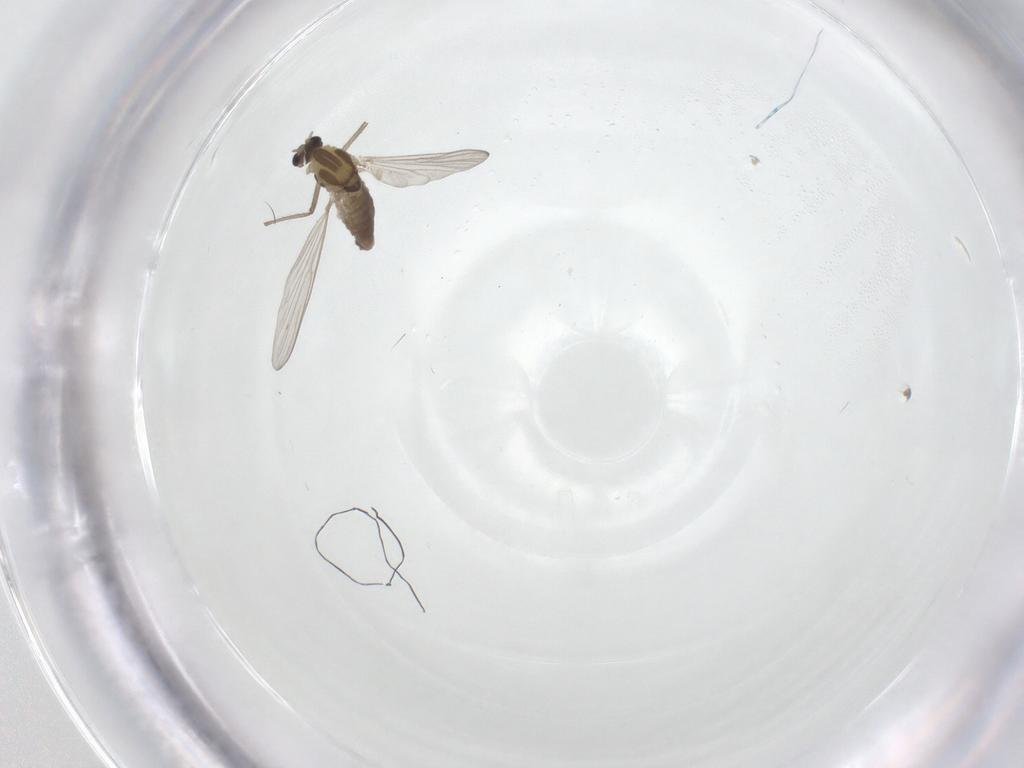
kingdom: Animalia
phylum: Arthropoda
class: Insecta
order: Diptera
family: Chironomidae
